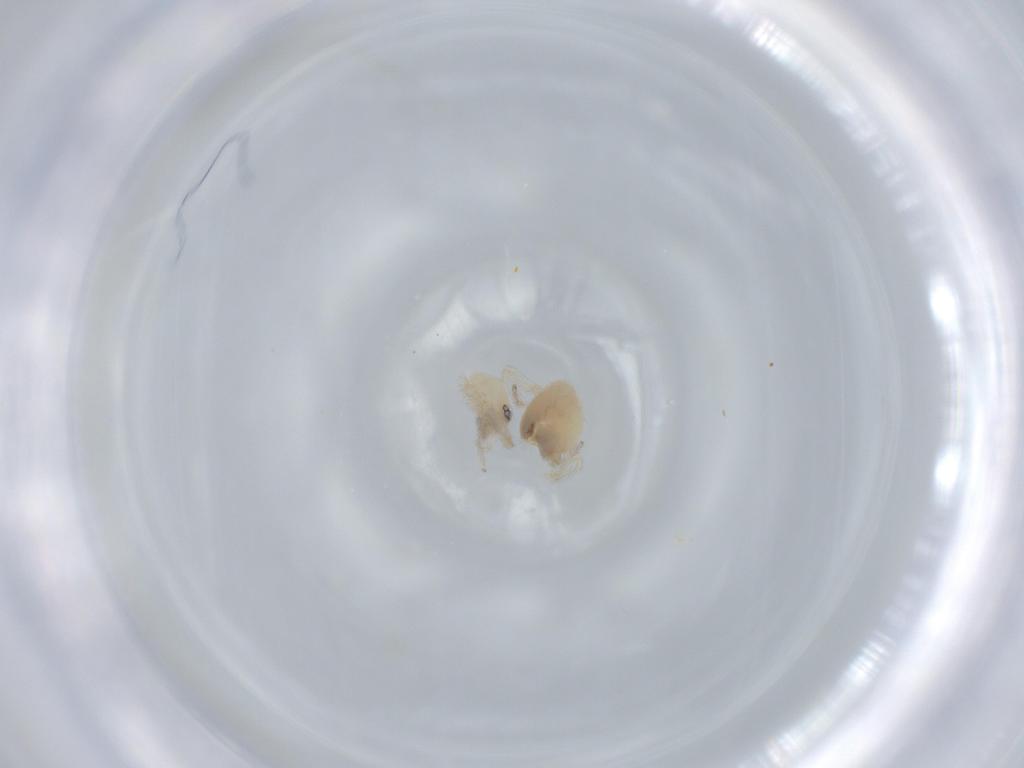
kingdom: Animalia
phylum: Arthropoda
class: Arachnida
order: Araneae
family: Oonopidae
